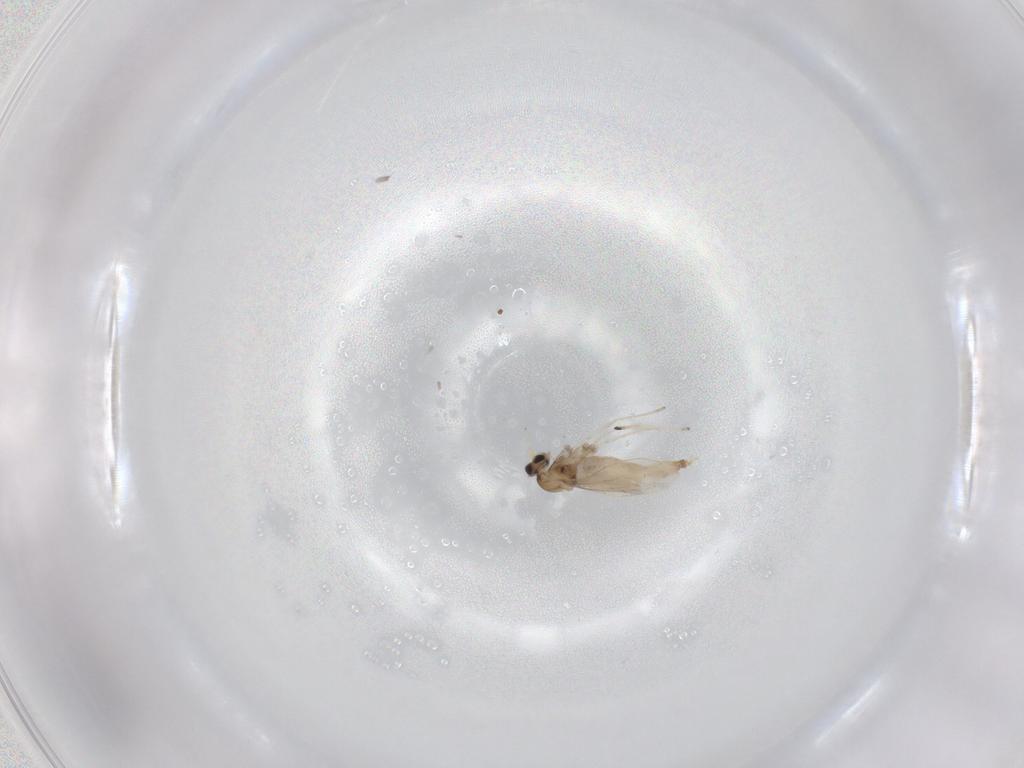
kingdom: Animalia
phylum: Arthropoda
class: Insecta
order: Diptera
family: Cecidomyiidae
